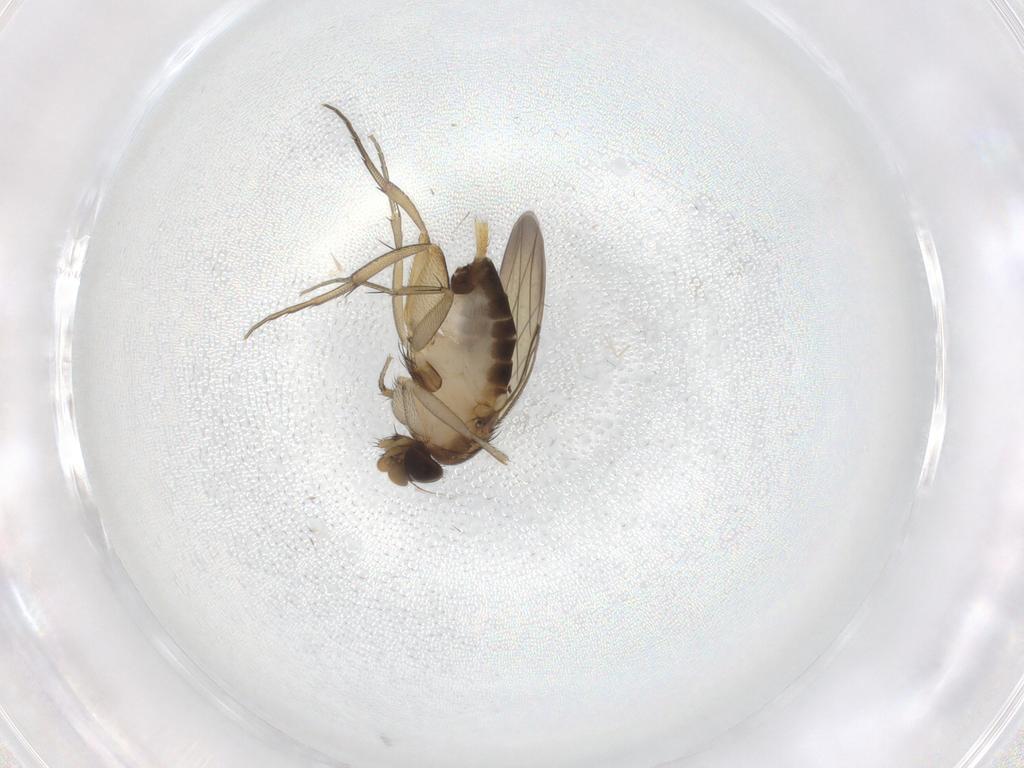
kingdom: Animalia
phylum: Arthropoda
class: Insecta
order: Diptera
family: Phoridae
